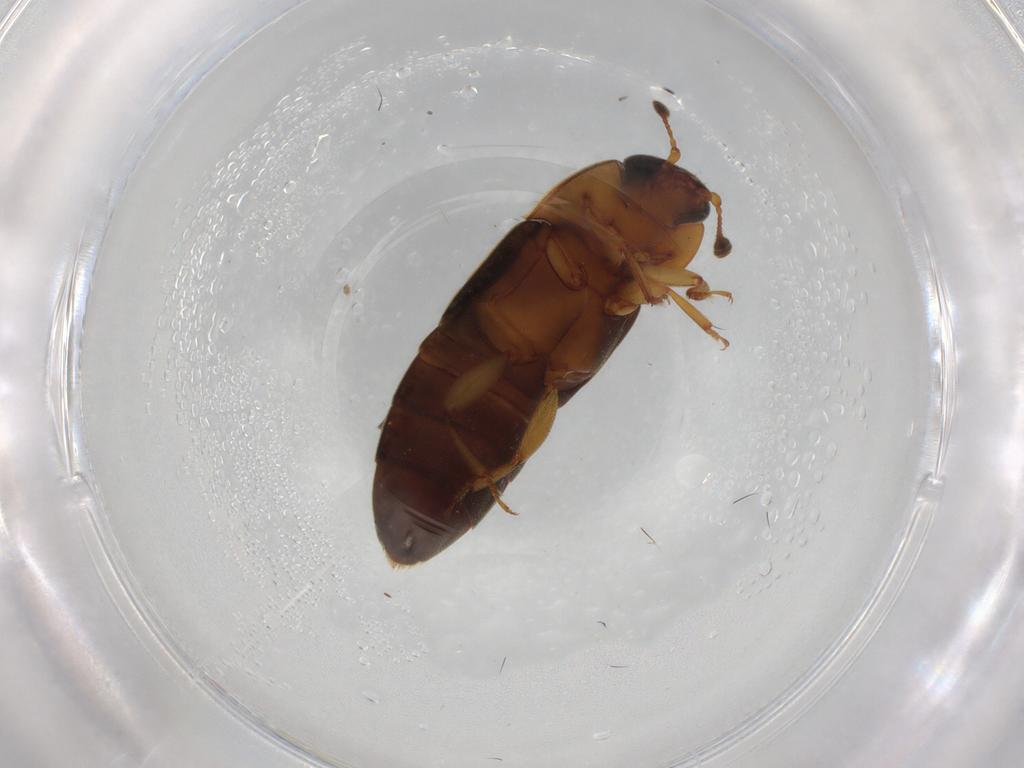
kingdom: Animalia
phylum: Arthropoda
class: Insecta
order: Coleoptera
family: Nitidulidae
